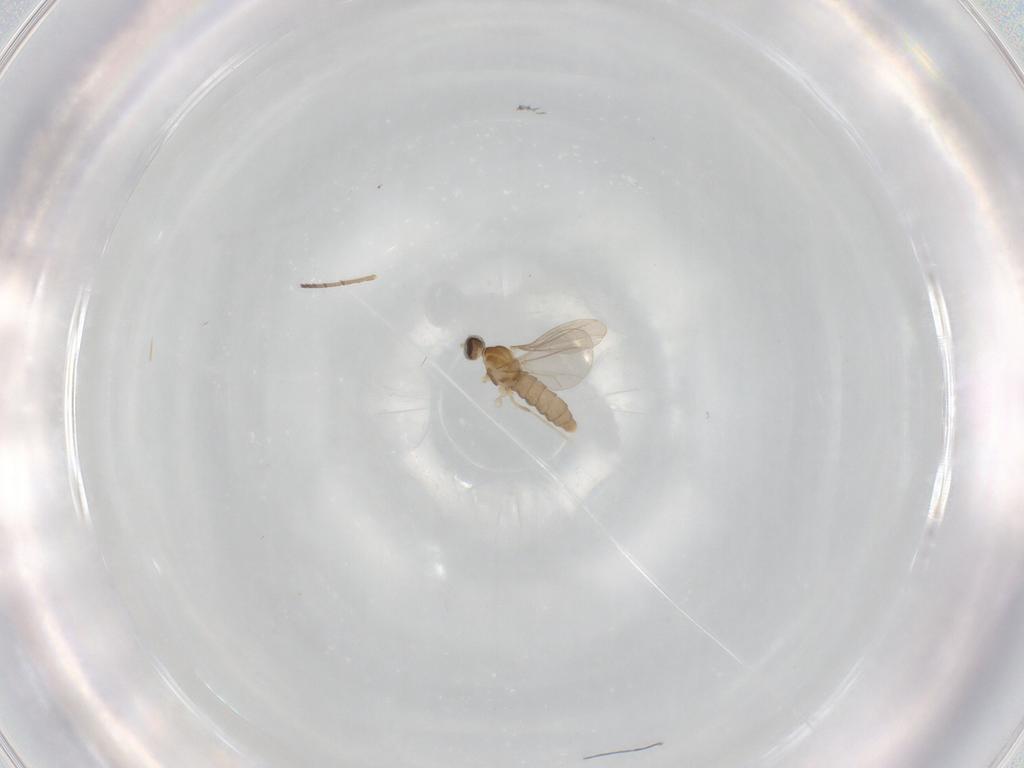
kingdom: Animalia
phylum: Arthropoda
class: Insecta
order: Diptera
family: Cecidomyiidae
